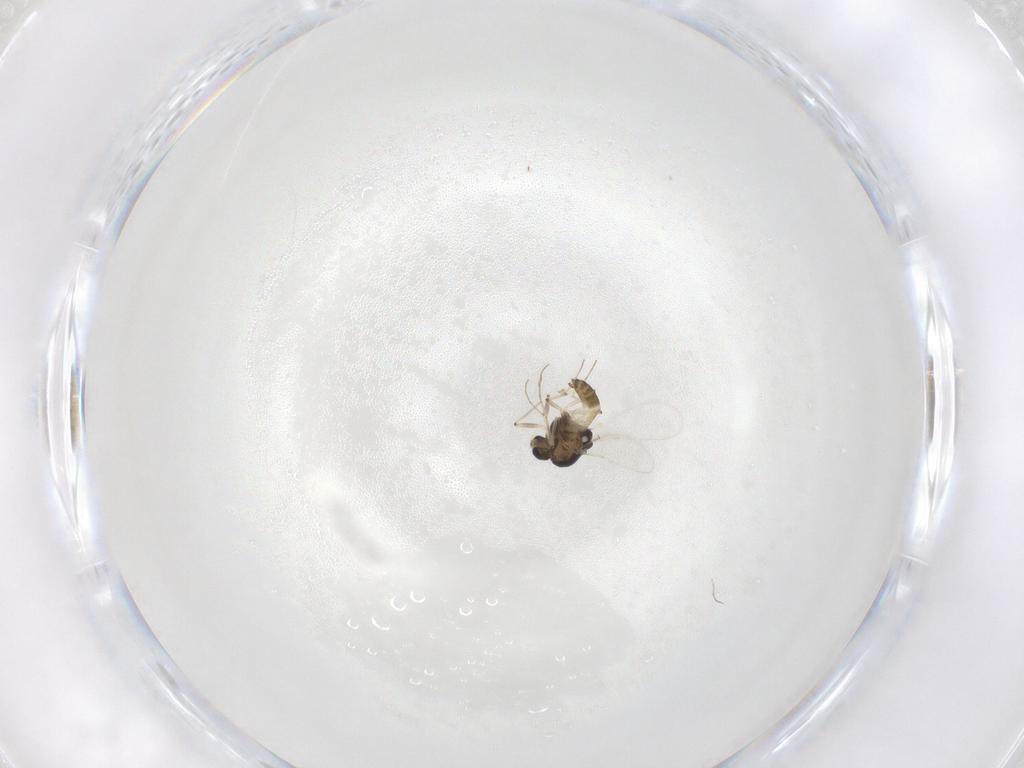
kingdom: Animalia
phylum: Arthropoda
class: Insecta
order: Diptera
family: Chironomidae
